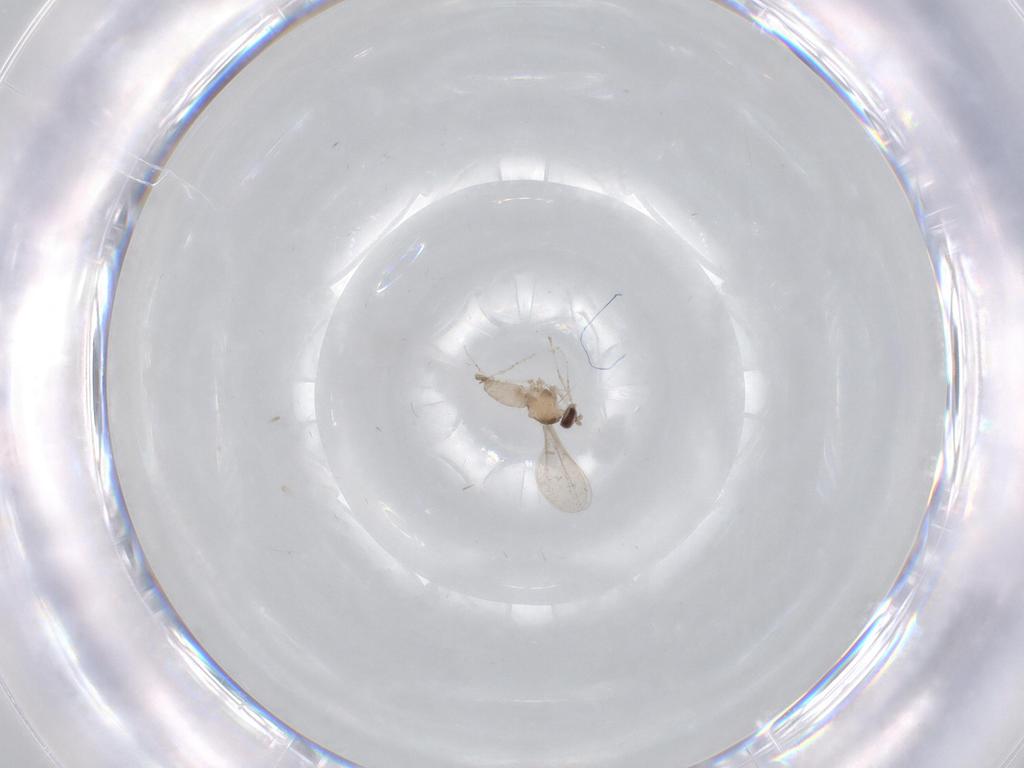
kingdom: Animalia
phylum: Arthropoda
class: Insecta
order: Diptera
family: Cecidomyiidae
